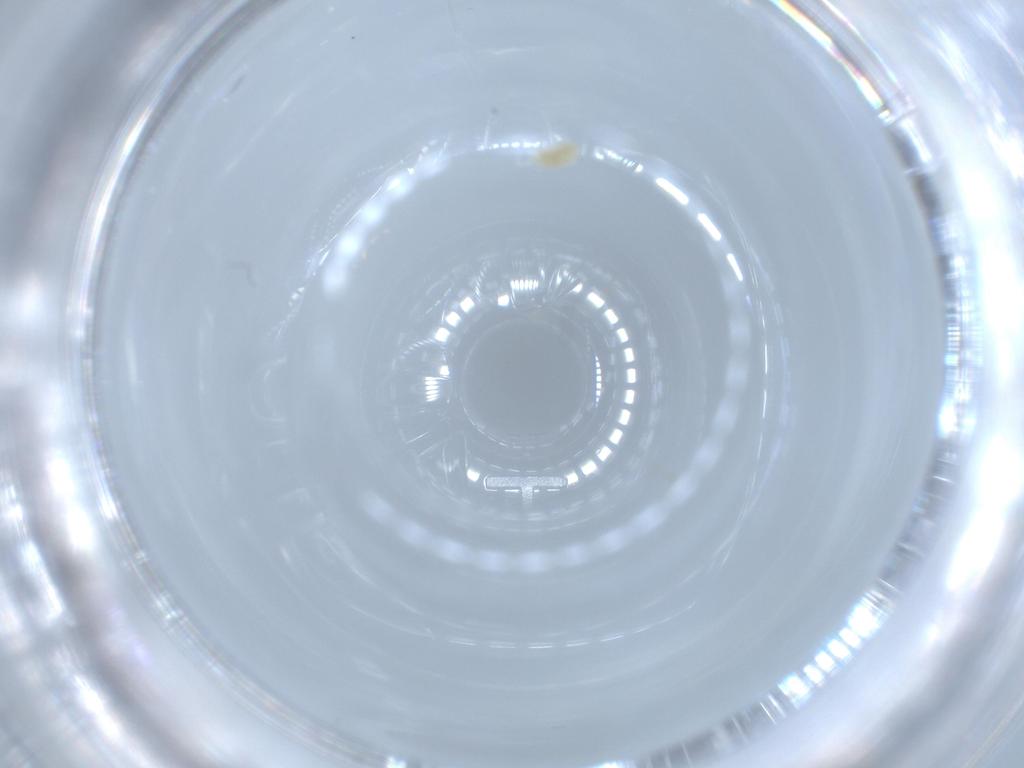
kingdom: Animalia
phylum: Arthropoda
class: Arachnida
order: Trombidiformes
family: Eupodidae
